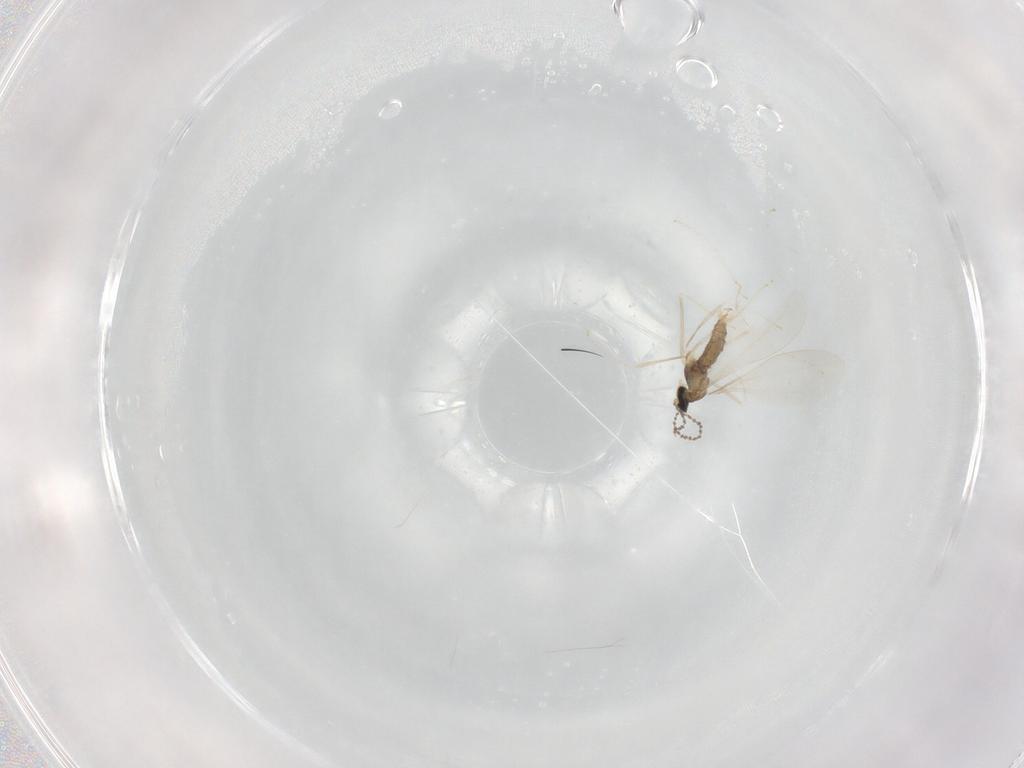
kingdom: Animalia
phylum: Arthropoda
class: Insecta
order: Diptera
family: Cecidomyiidae
